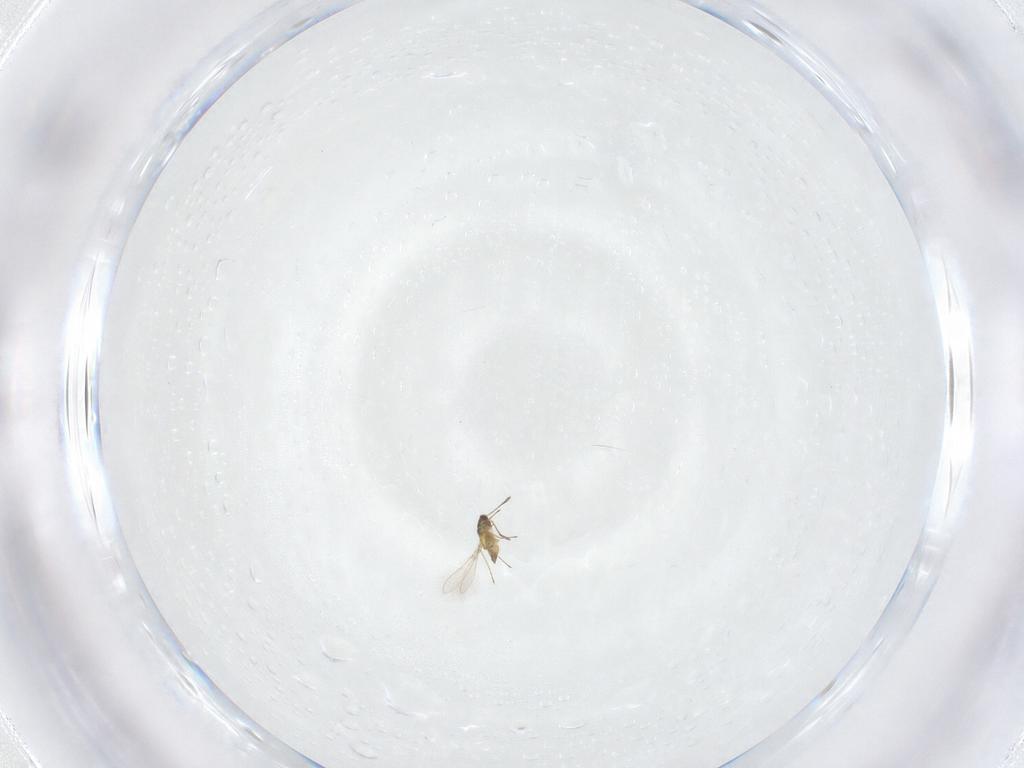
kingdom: Animalia
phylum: Arthropoda
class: Insecta
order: Hymenoptera
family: Mymaridae
